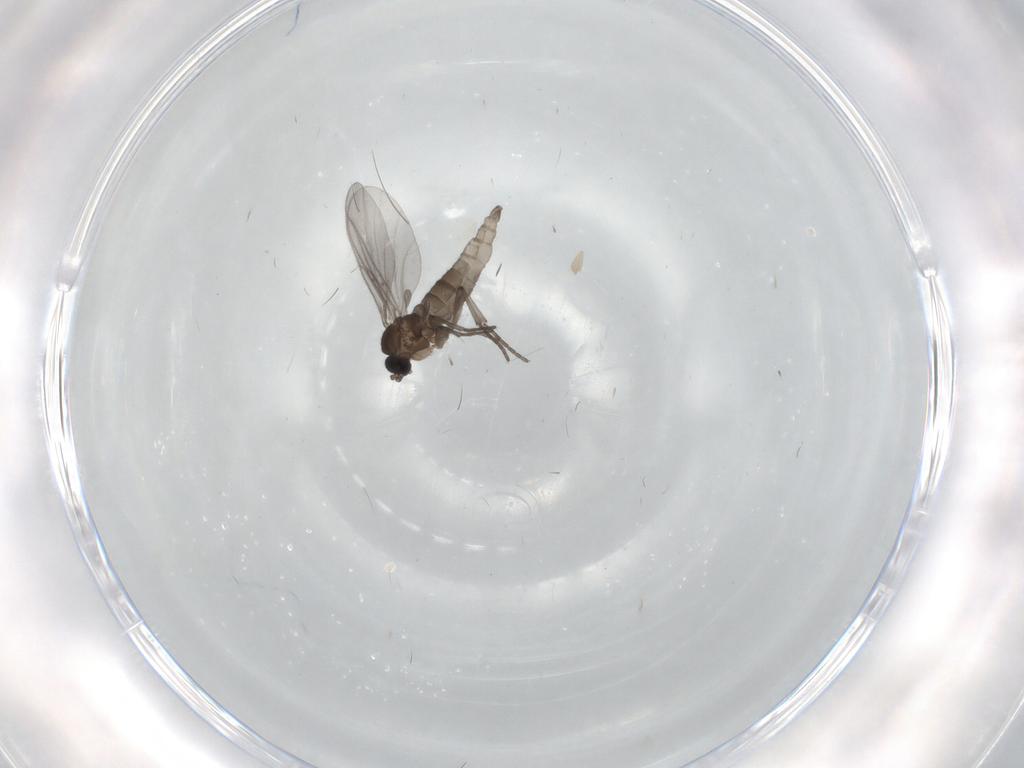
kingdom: Animalia
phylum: Arthropoda
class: Insecta
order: Diptera
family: Sciaridae
